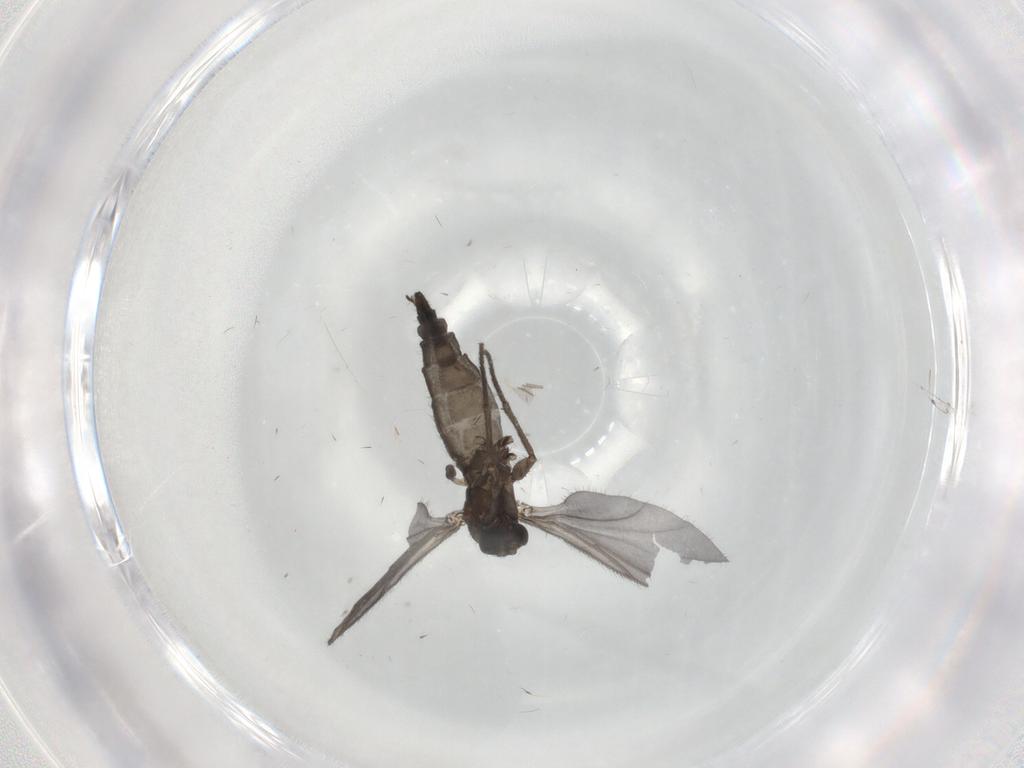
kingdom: Animalia
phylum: Arthropoda
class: Insecta
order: Diptera
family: Sciaridae
